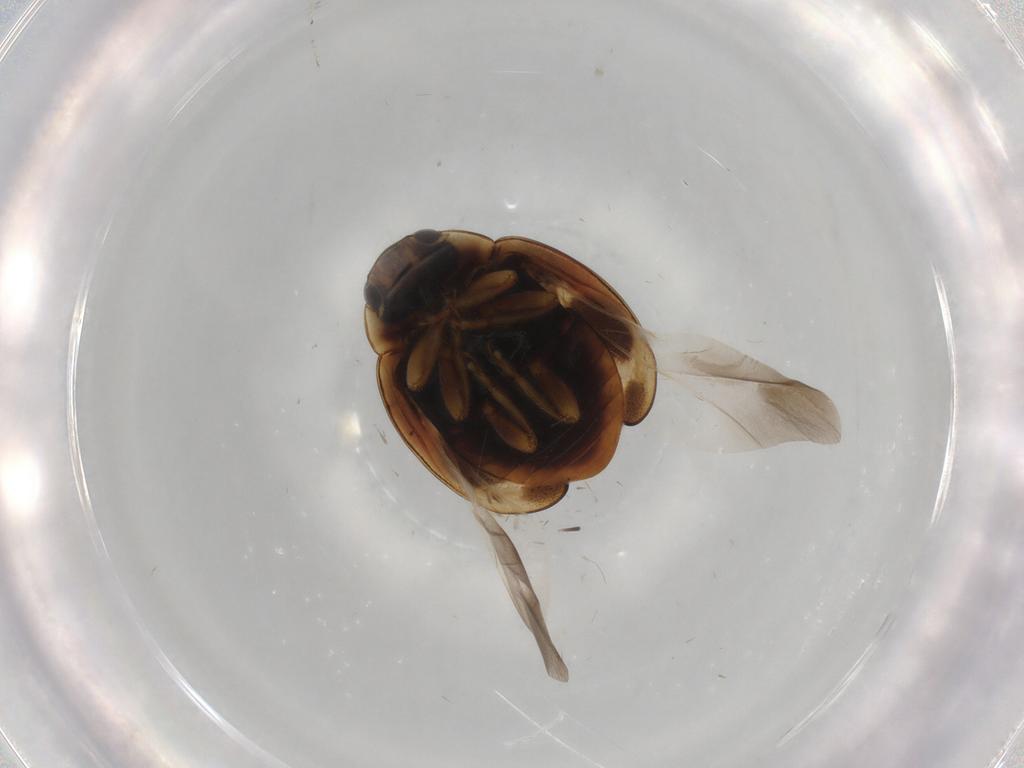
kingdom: Animalia
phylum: Arthropoda
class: Insecta
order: Coleoptera
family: Coccinellidae
